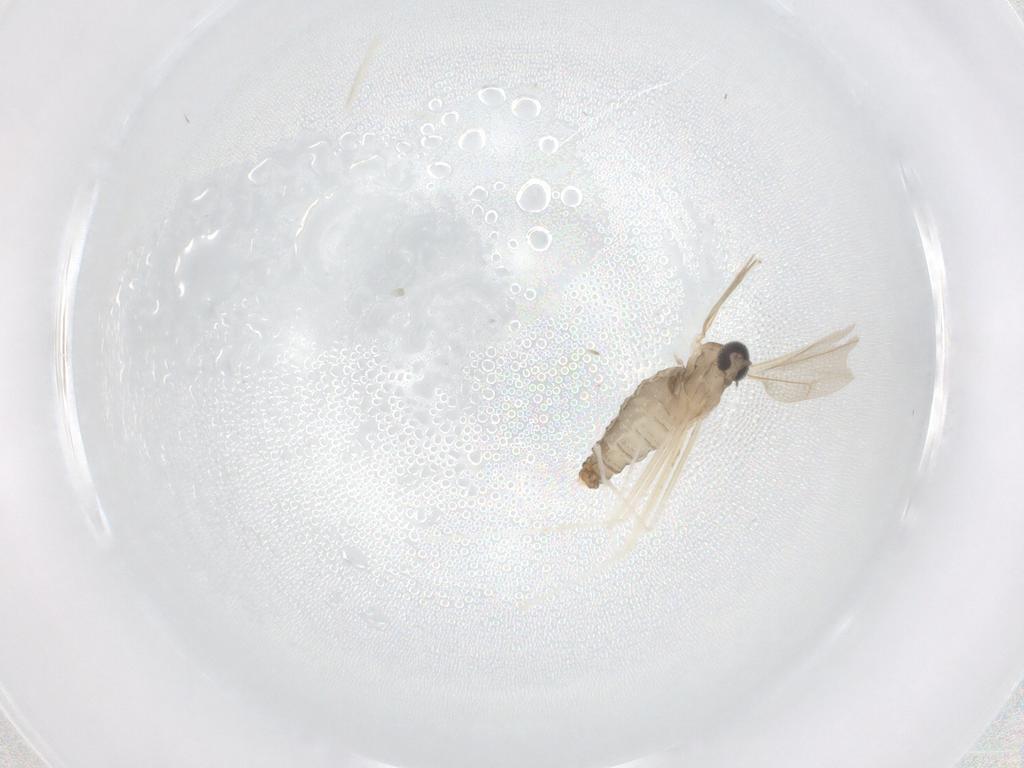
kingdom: Animalia
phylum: Arthropoda
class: Insecta
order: Diptera
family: Cecidomyiidae
